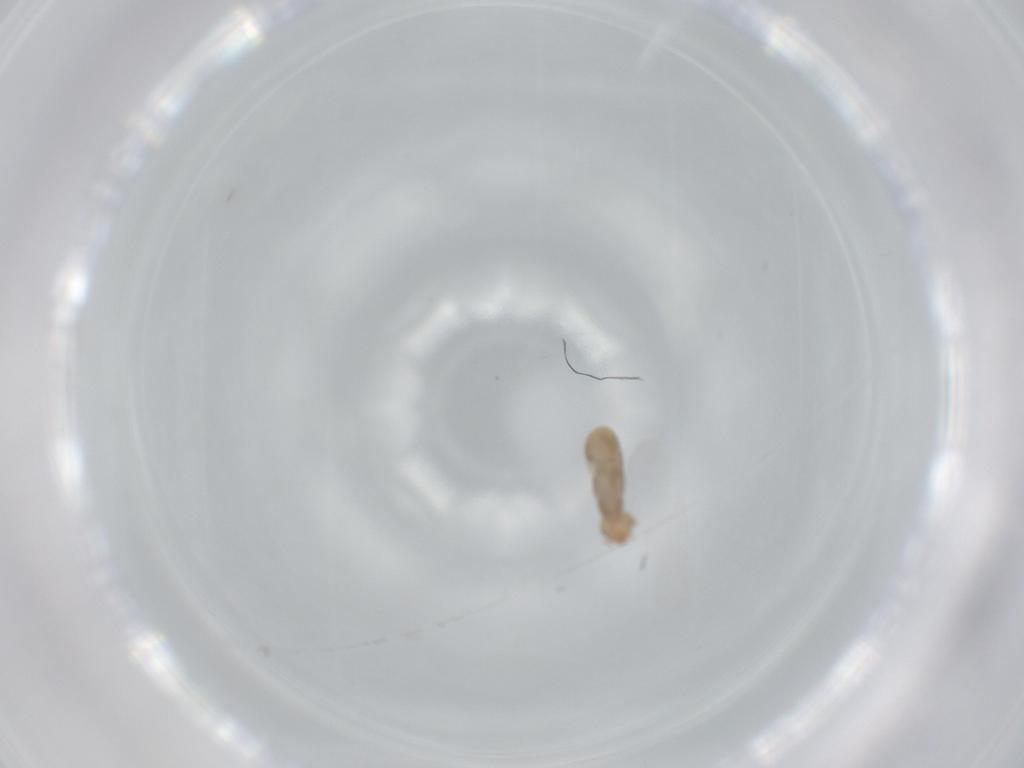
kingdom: Animalia
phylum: Arthropoda
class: Insecta
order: Psocodea
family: Liposcelididae
